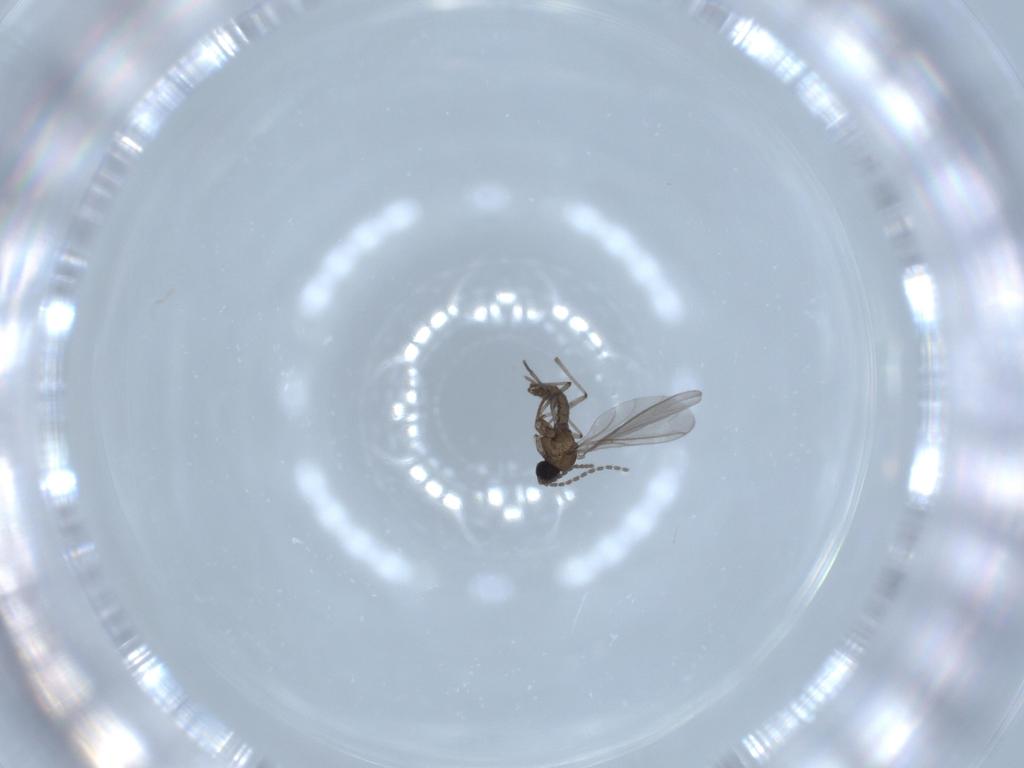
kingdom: Animalia
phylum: Arthropoda
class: Insecta
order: Diptera
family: Sciaridae
